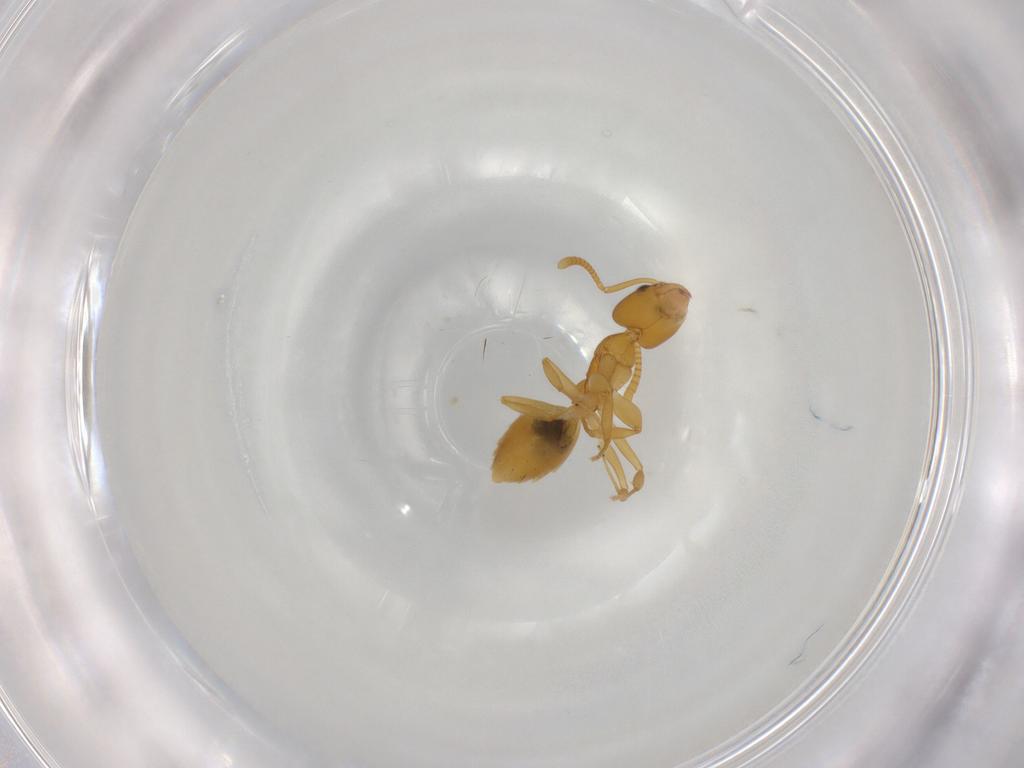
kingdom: Animalia
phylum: Arthropoda
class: Insecta
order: Hymenoptera
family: Formicidae
